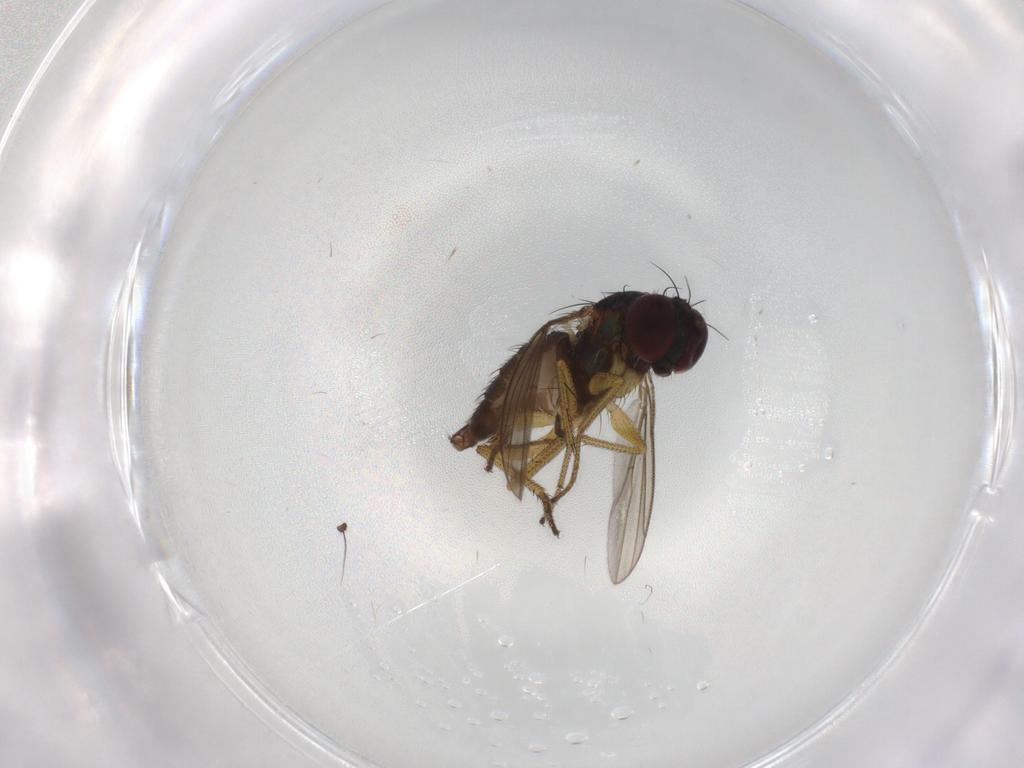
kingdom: Animalia
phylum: Arthropoda
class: Insecta
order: Diptera
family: Dolichopodidae
